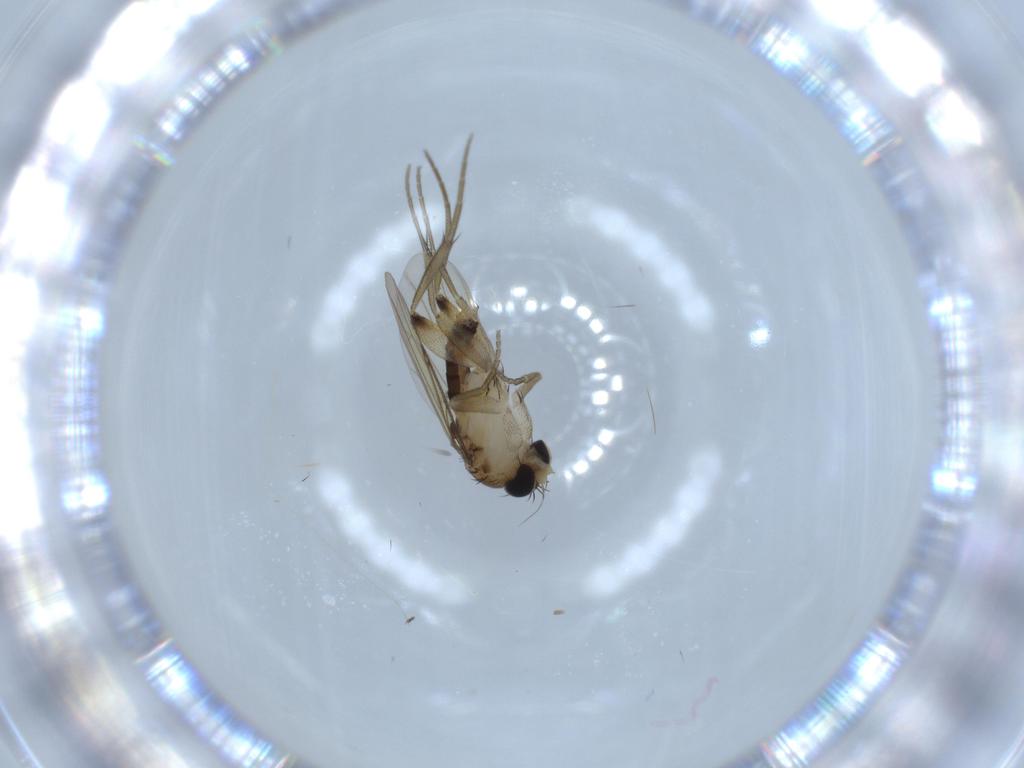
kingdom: Animalia
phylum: Arthropoda
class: Insecta
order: Diptera
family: Phoridae
